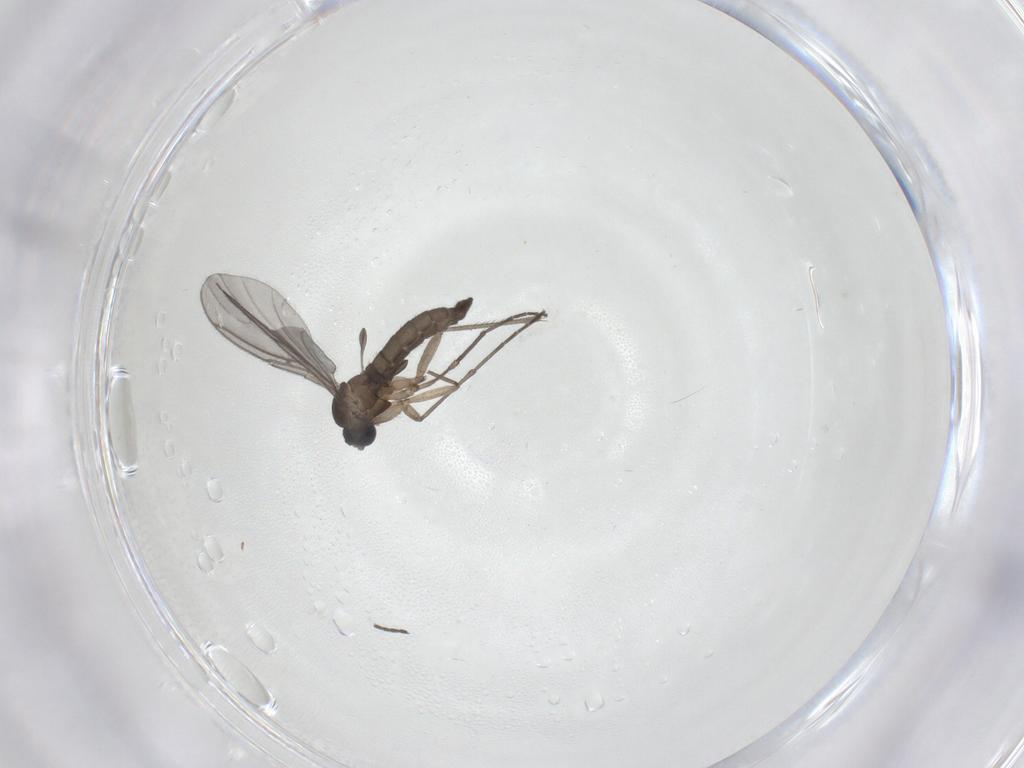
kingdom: Animalia
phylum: Arthropoda
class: Insecta
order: Diptera
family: Sciaridae
